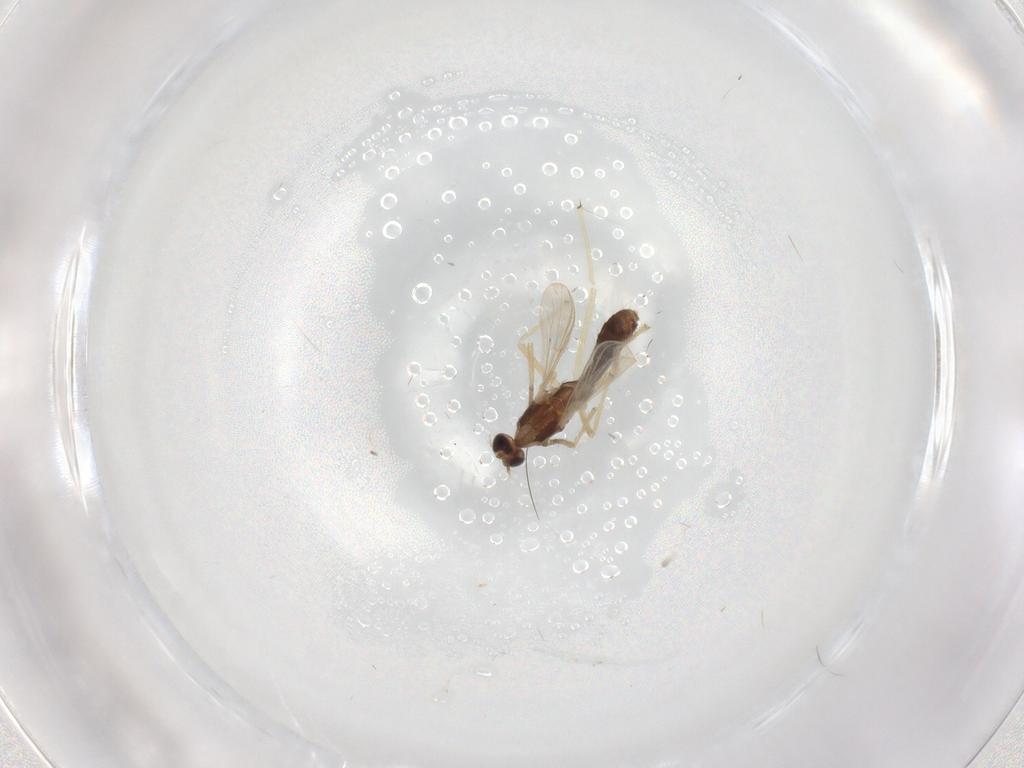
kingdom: Animalia
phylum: Arthropoda
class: Insecta
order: Diptera
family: Chironomidae
